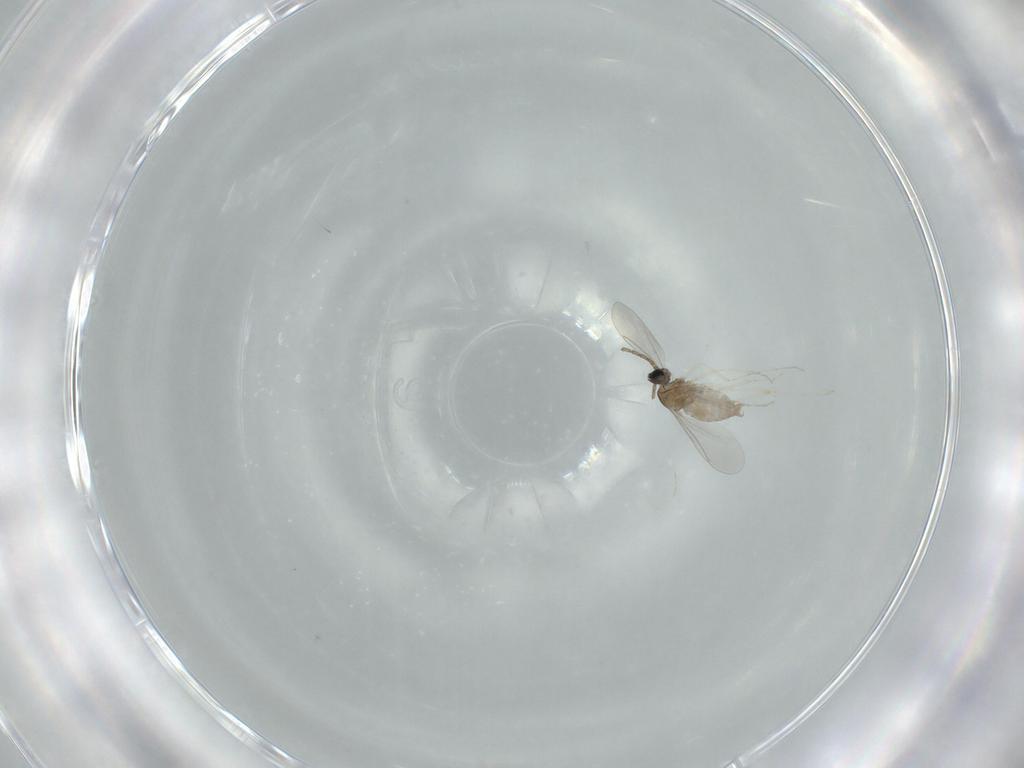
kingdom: Animalia
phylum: Arthropoda
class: Insecta
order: Diptera
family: Cecidomyiidae
